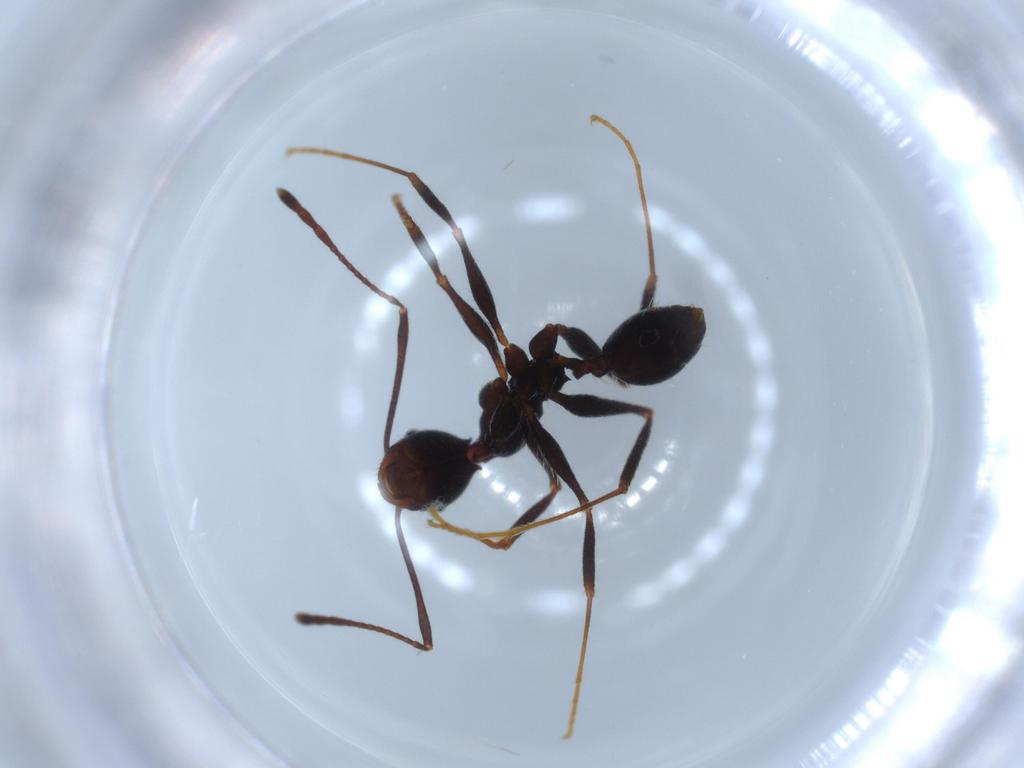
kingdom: Animalia
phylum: Arthropoda
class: Insecta
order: Hymenoptera
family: Formicidae
